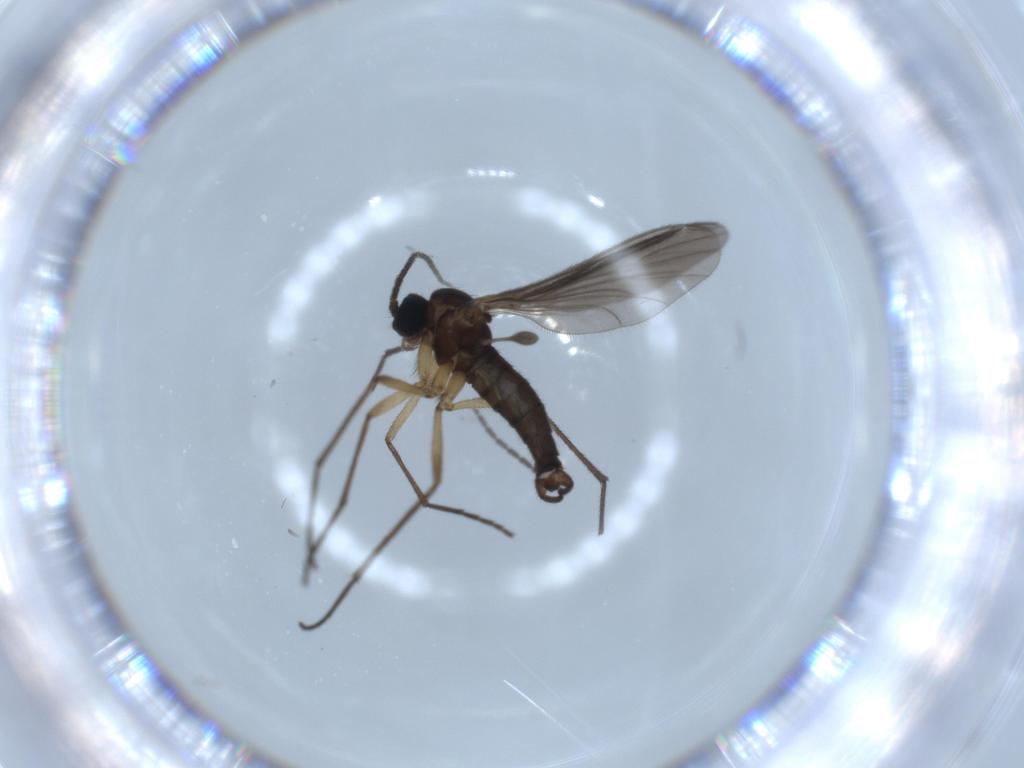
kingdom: Animalia
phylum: Arthropoda
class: Insecta
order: Diptera
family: Sciaridae
